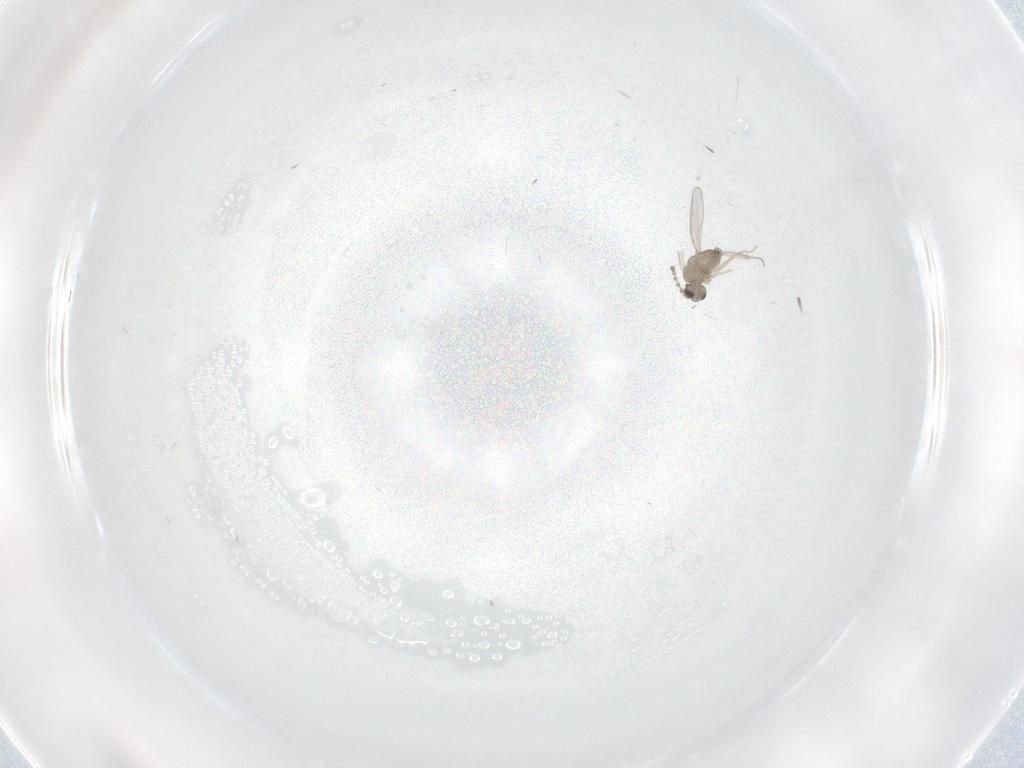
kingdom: Animalia
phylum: Arthropoda
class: Insecta
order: Diptera
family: Cecidomyiidae
